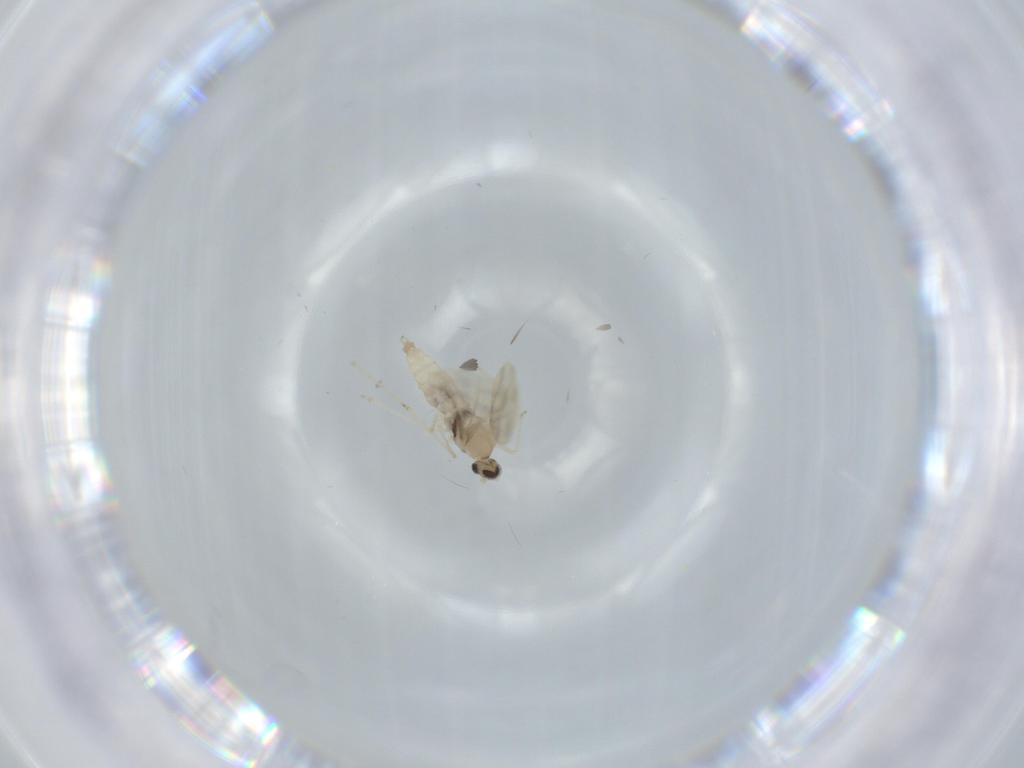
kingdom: Animalia
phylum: Arthropoda
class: Insecta
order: Diptera
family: Cecidomyiidae
